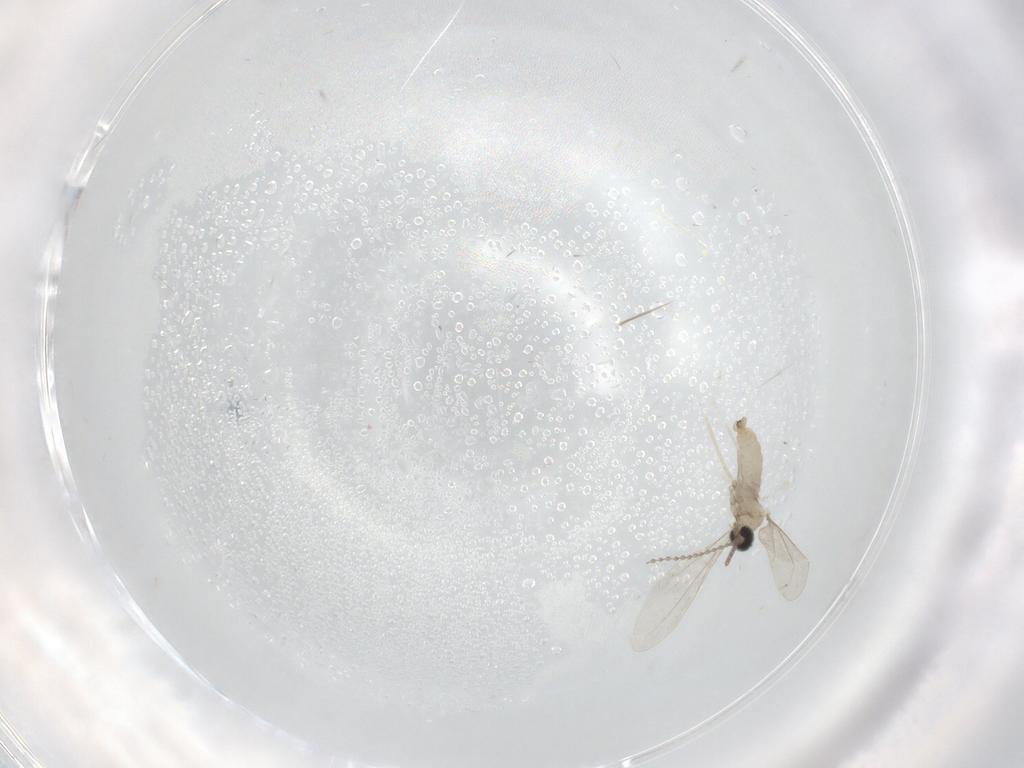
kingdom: Animalia
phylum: Arthropoda
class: Insecta
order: Diptera
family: Cecidomyiidae
